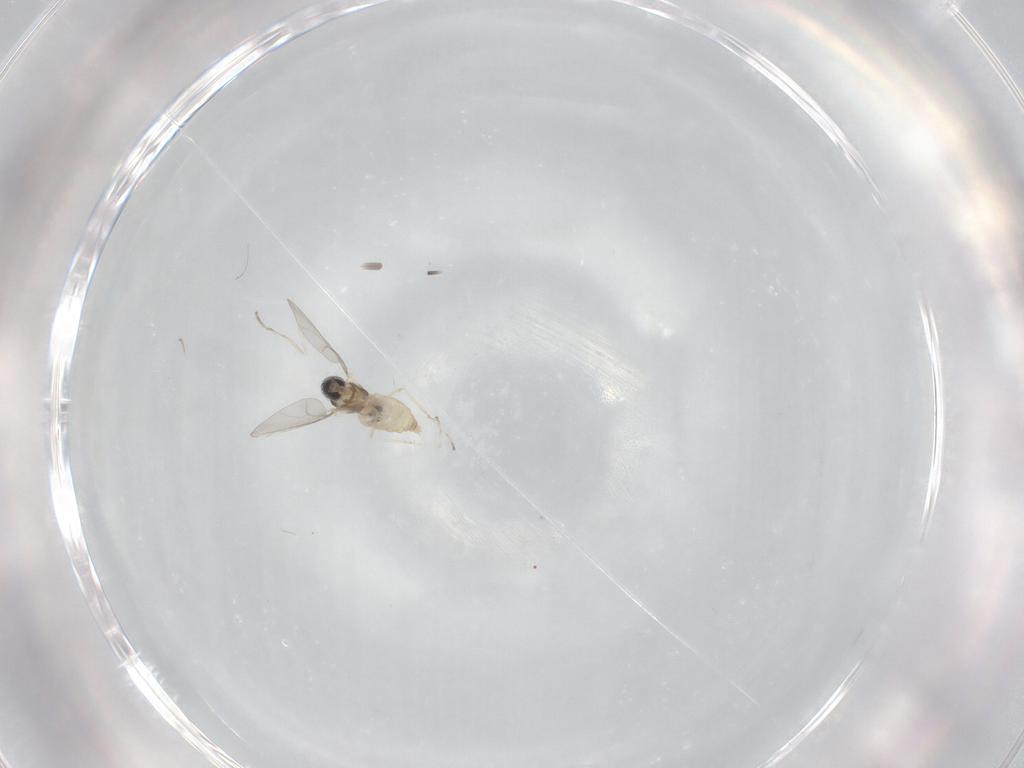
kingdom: Animalia
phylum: Arthropoda
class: Insecta
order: Diptera
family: Cecidomyiidae
